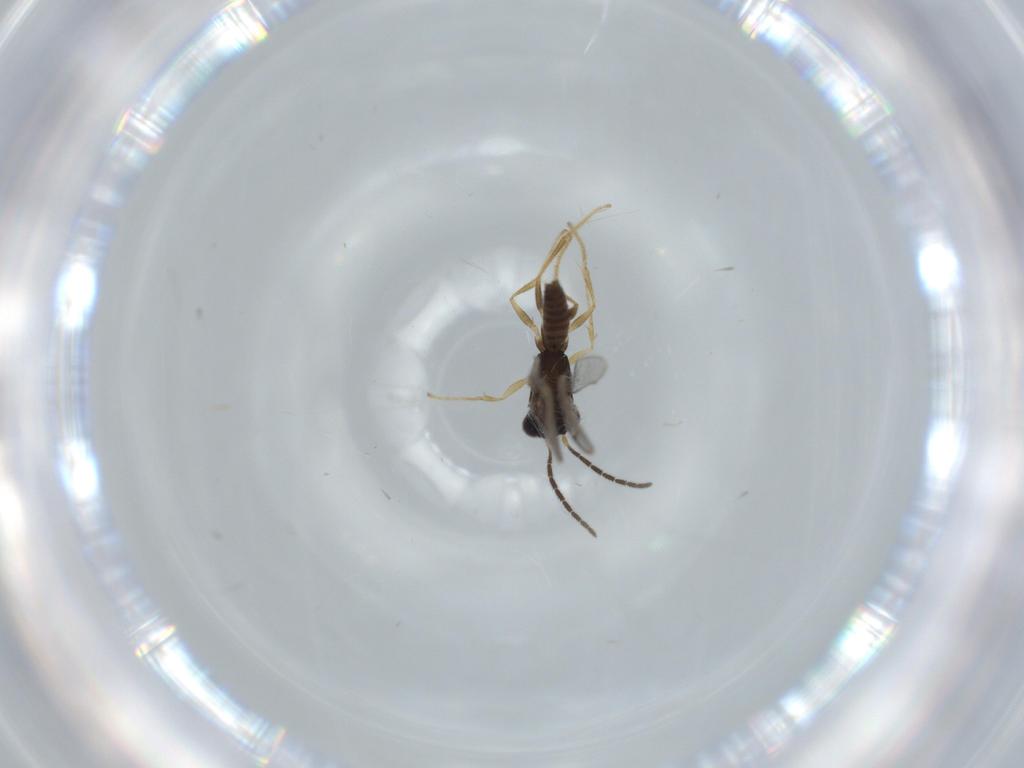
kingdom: Animalia
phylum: Arthropoda
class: Insecta
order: Hymenoptera
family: Dryinidae
